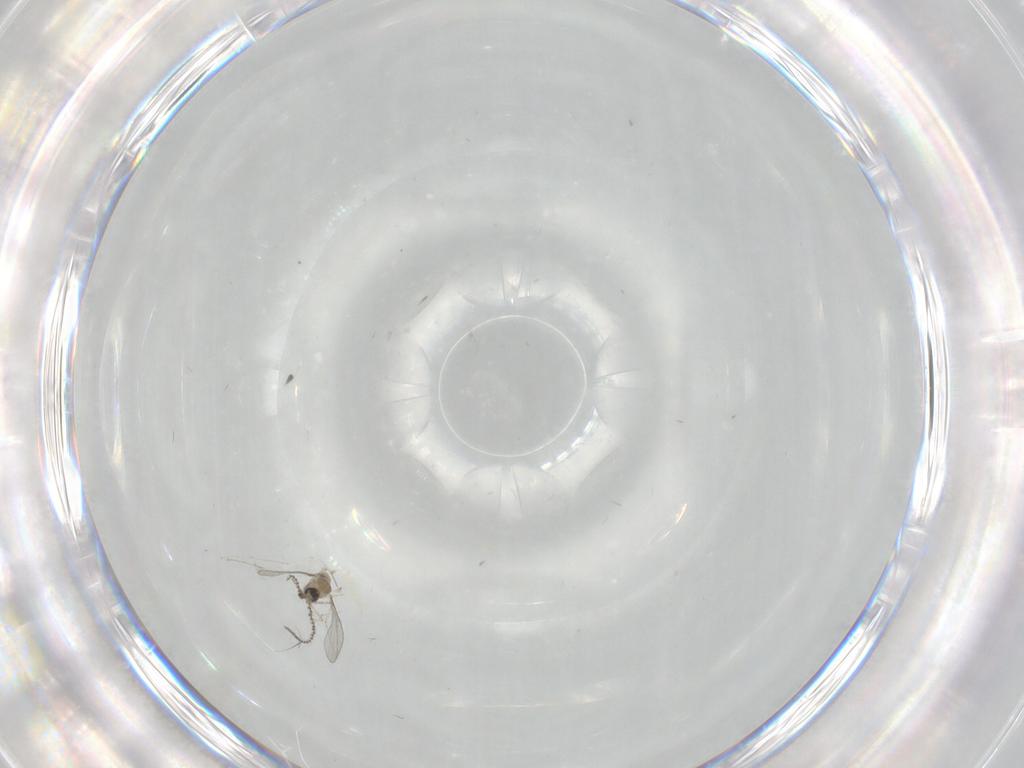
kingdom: Animalia
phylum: Arthropoda
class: Insecta
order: Diptera
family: Cecidomyiidae
